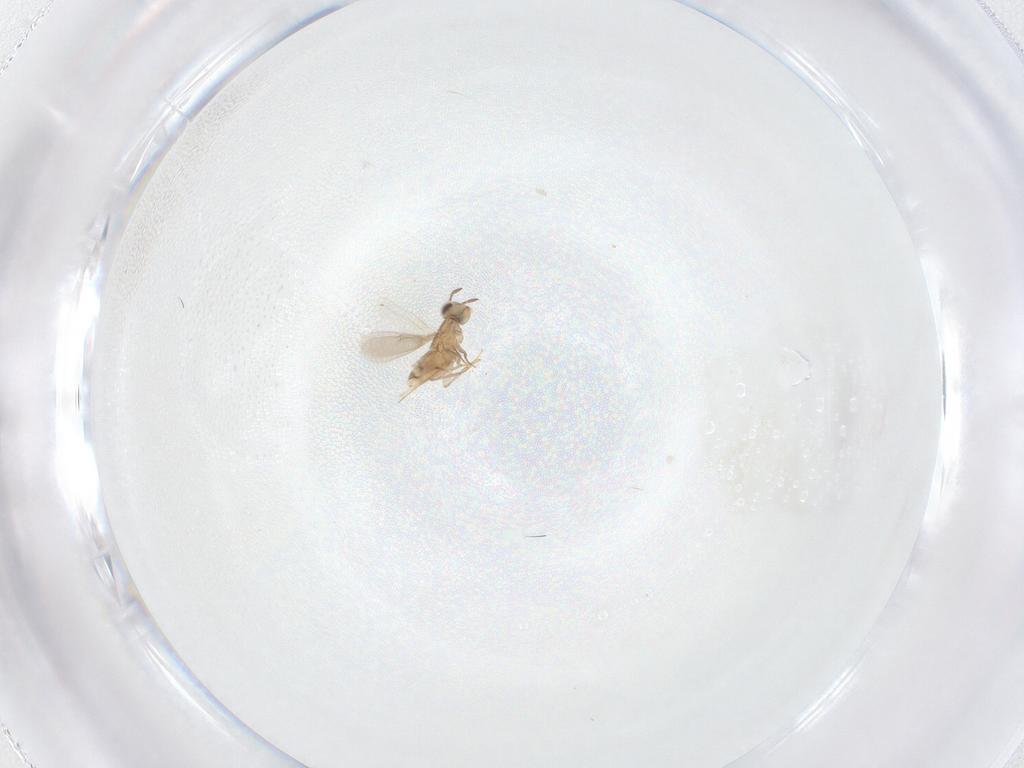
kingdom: Animalia
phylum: Arthropoda
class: Insecta
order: Hymenoptera
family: Aphelinidae
